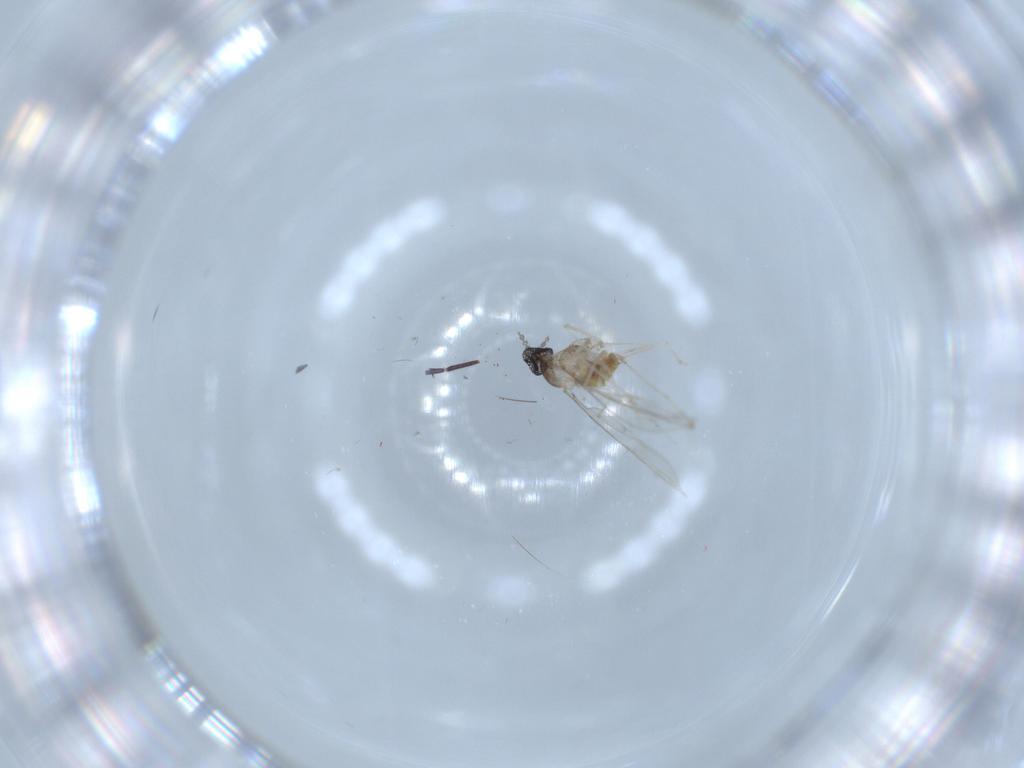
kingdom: Animalia
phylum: Arthropoda
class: Insecta
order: Diptera
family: Cecidomyiidae
